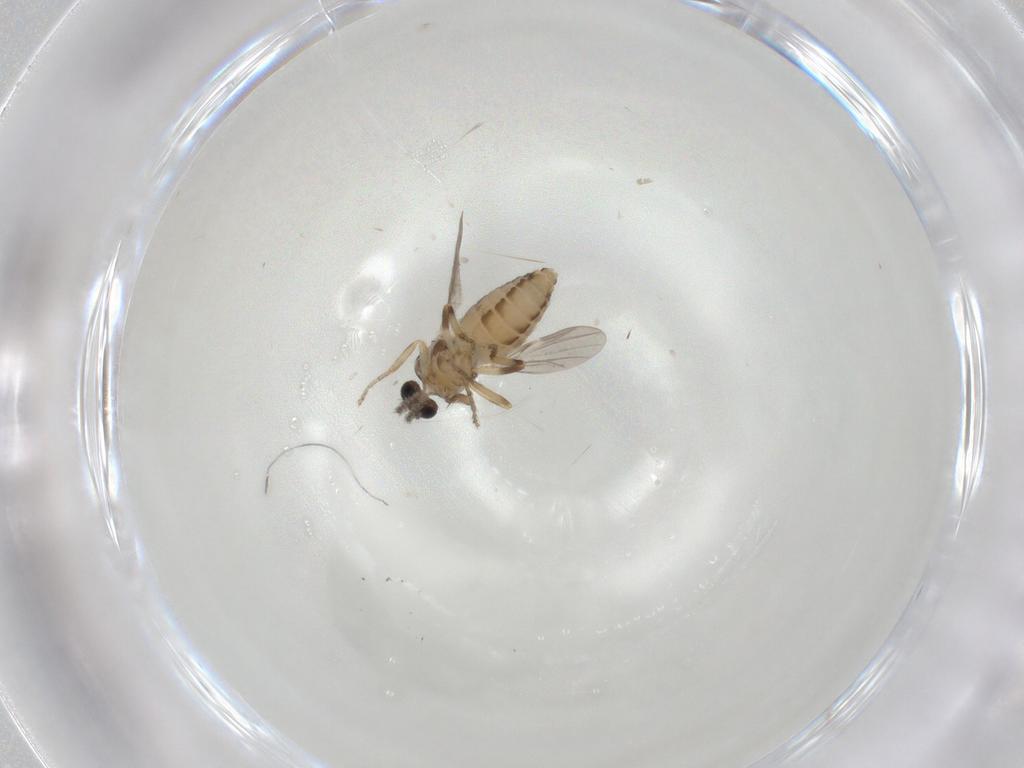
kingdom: Animalia
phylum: Arthropoda
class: Insecta
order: Diptera
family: Ceratopogonidae
